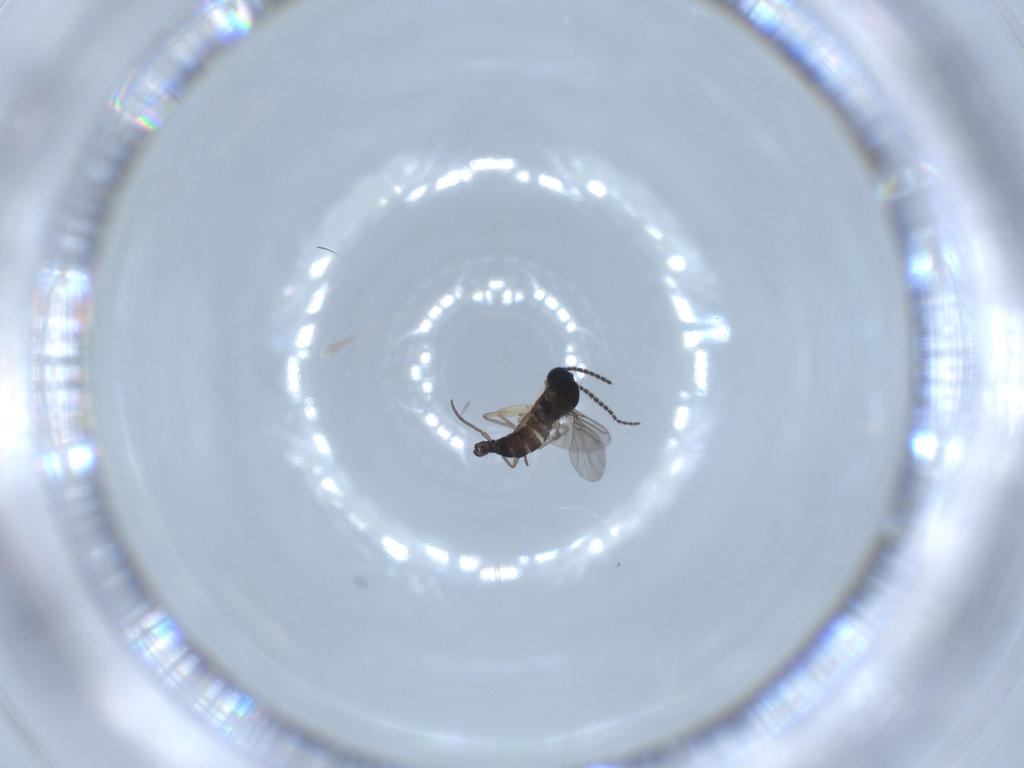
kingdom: Animalia
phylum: Arthropoda
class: Insecta
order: Diptera
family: Sciaridae
